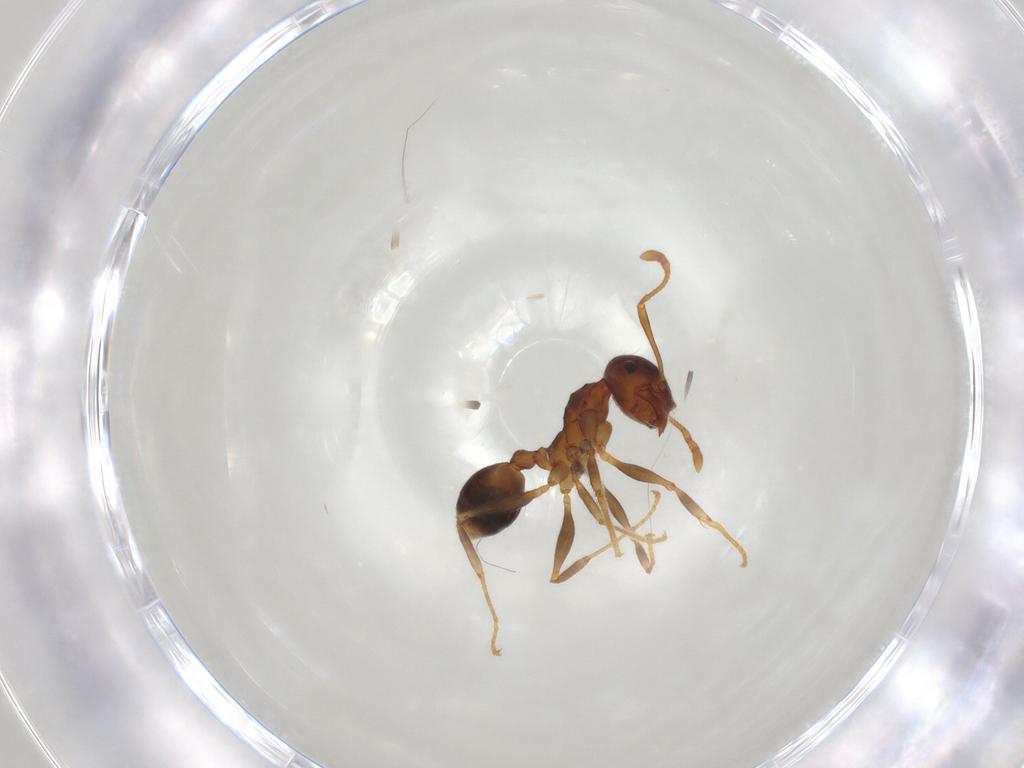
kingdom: Animalia
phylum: Arthropoda
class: Insecta
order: Hymenoptera
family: Formicidae
